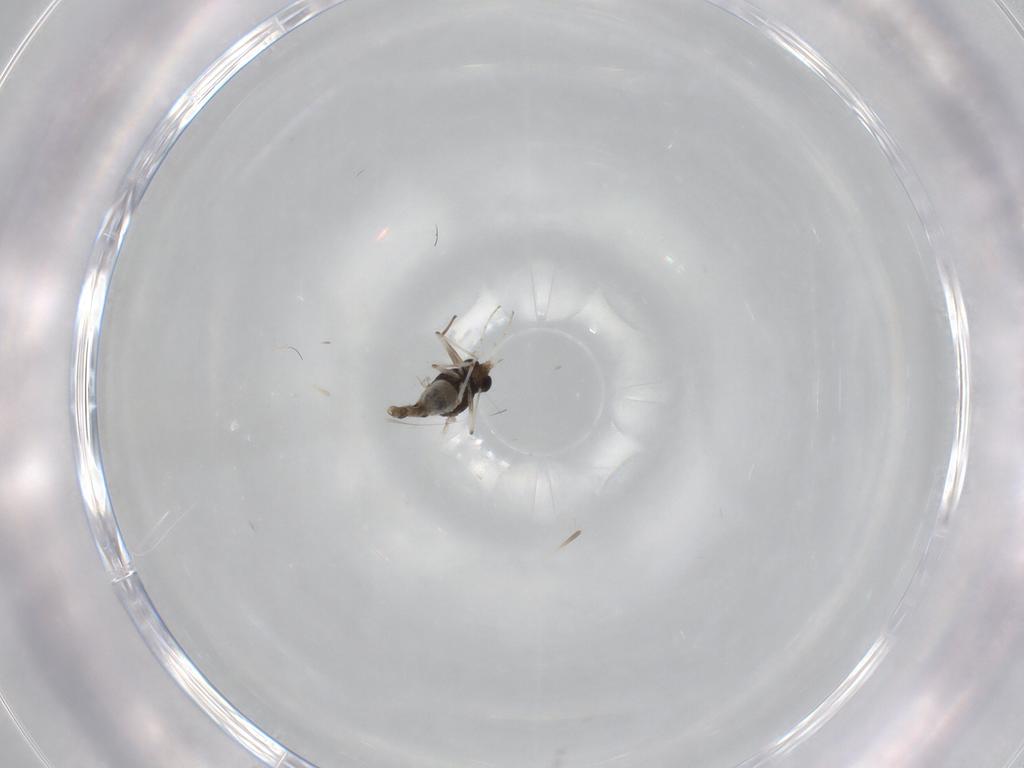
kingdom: Animalia
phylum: Arthropoda
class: Insecta
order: Diptera
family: Chironomidae
